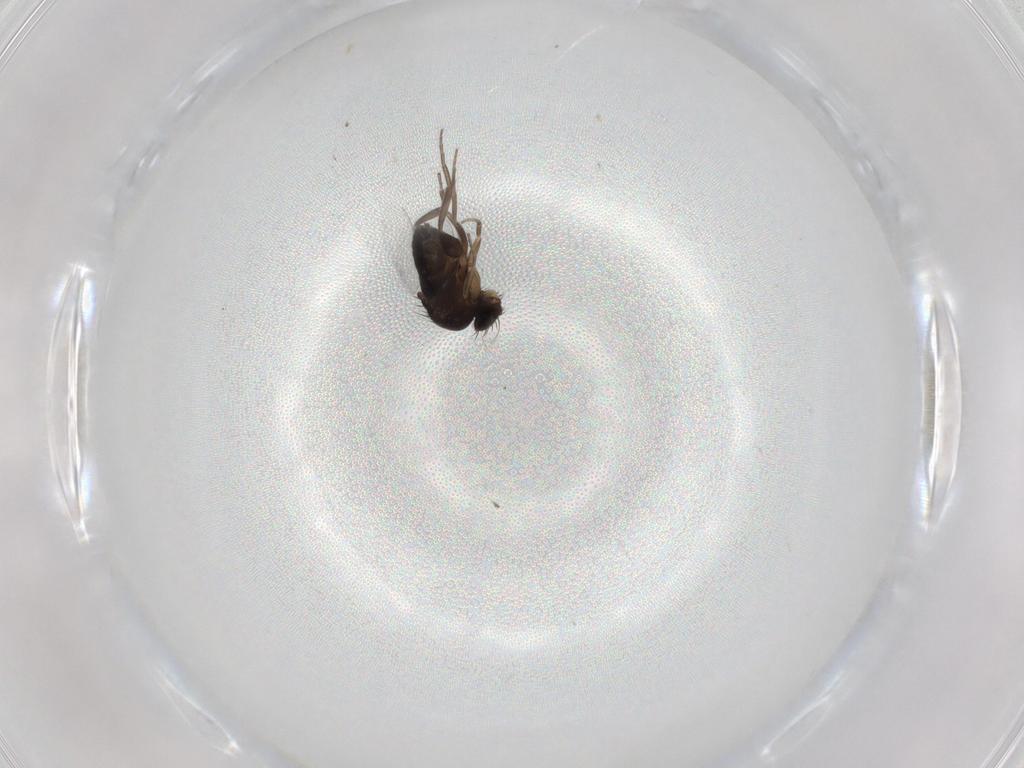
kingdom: Animalia
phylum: Arthropoda
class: Insecta
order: Diptera
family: Phoridae
